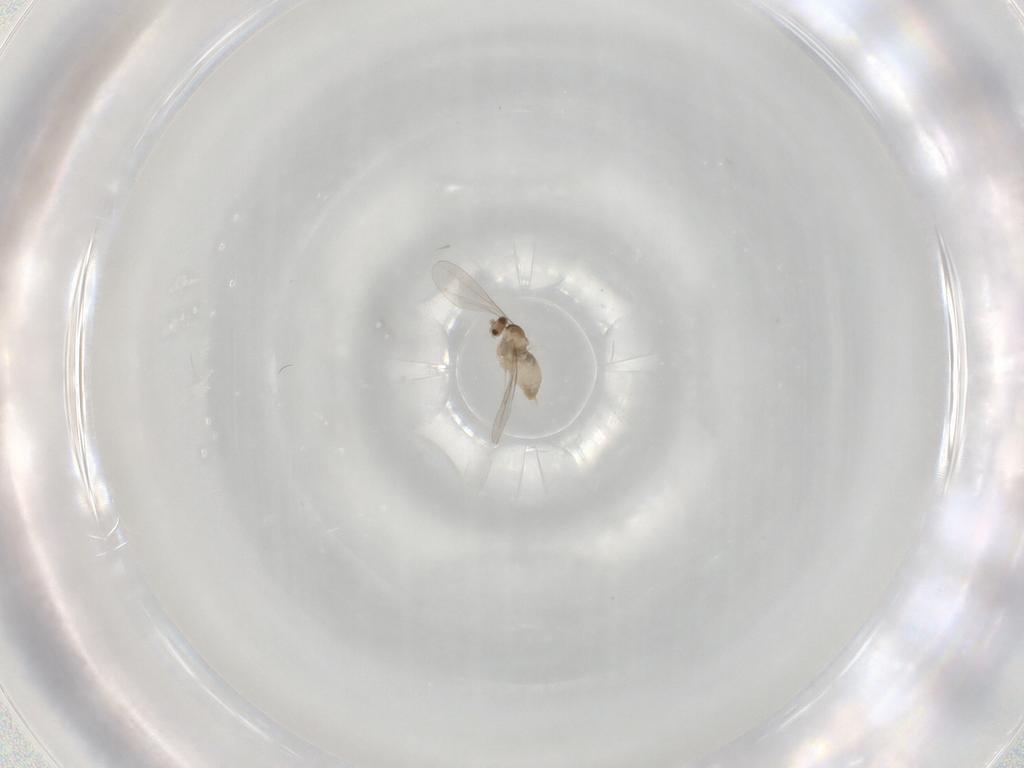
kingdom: Animalia
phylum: Arthropoda
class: Insecta
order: Diptera
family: Cecidomyiidae
